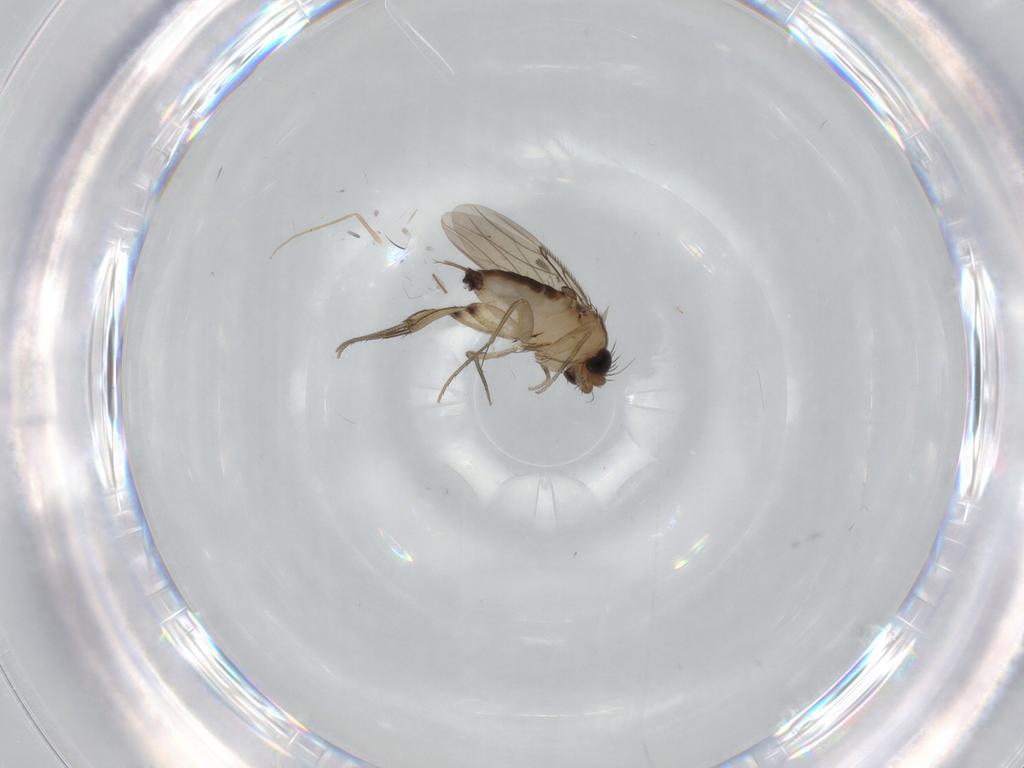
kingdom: Animalia
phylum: Arthropoda
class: Insecta
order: Diptera
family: Phoridae
